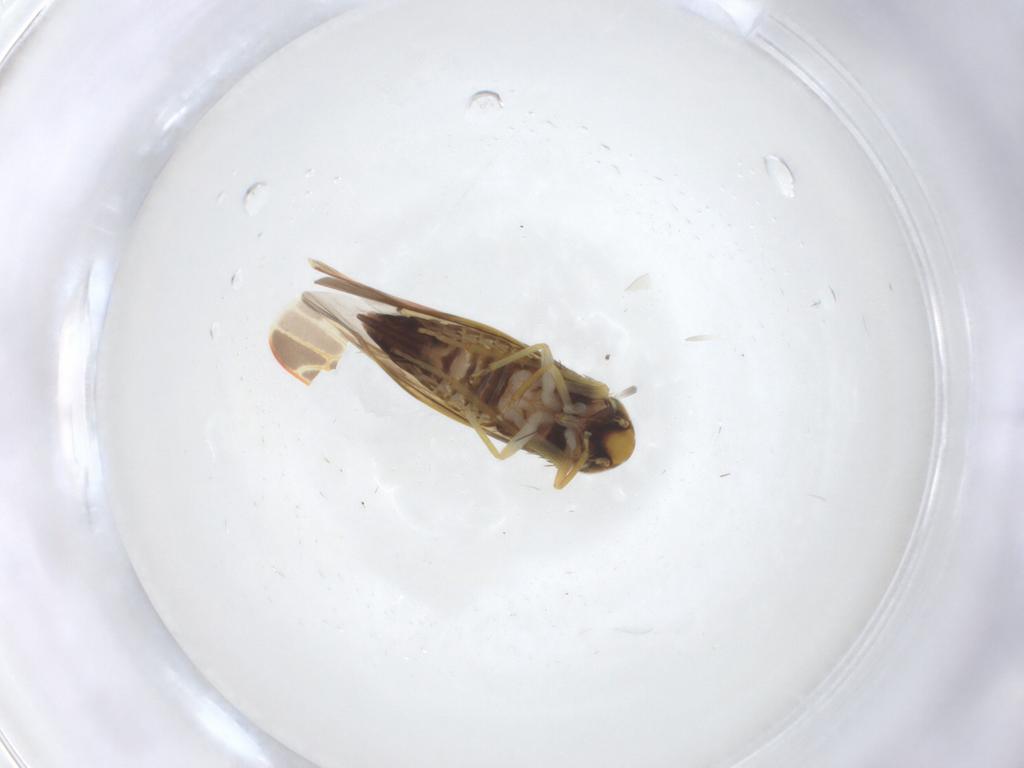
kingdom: Animalia
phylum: Arthropoda
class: Insecta
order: Hemiptera
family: Cicadellidae
